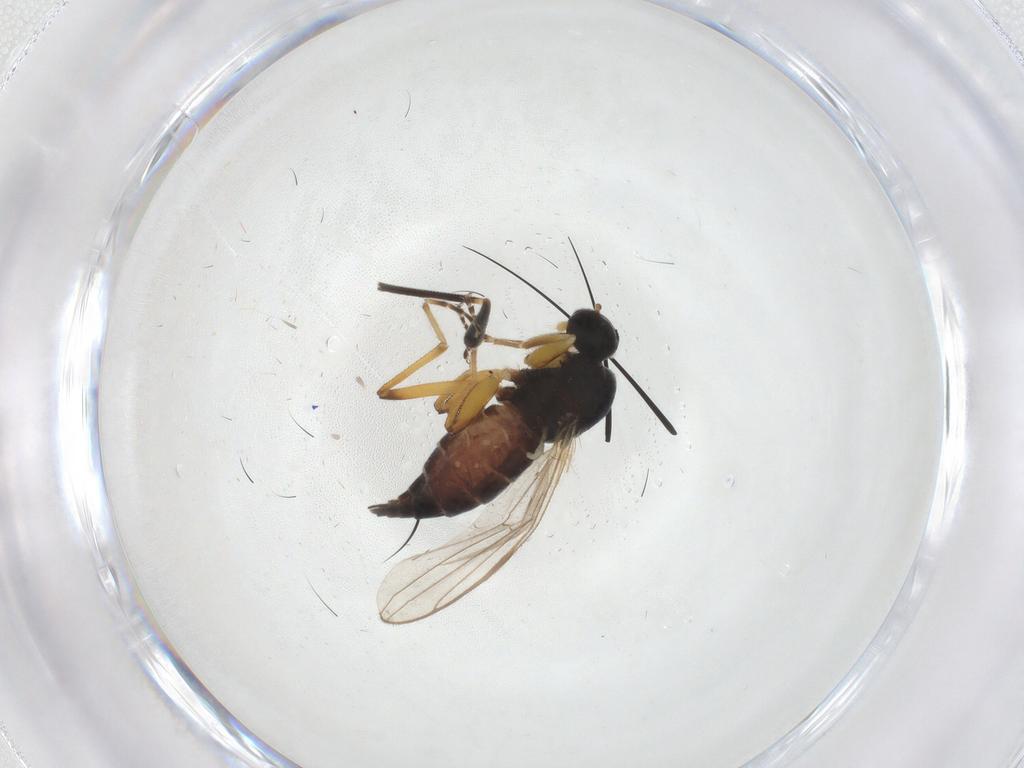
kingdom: Animalia
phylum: Arthropoda
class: Insecta
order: Diptera
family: Hybotidae
